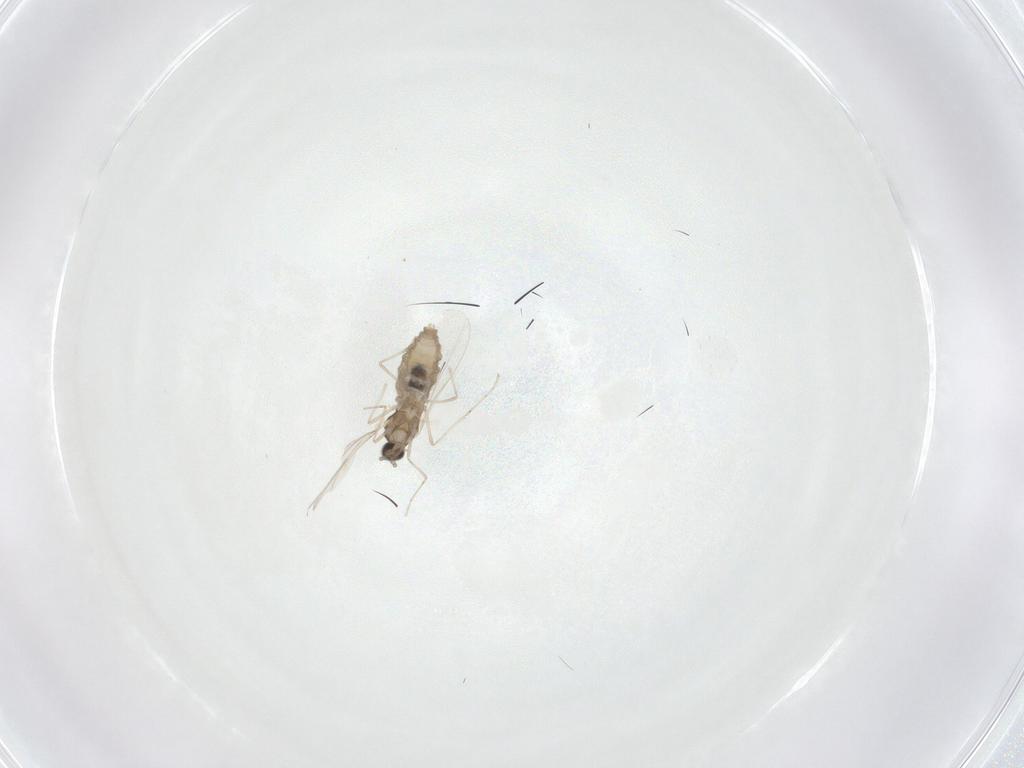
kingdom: Animalia
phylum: Arthropoda
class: Insecta
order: Diptera
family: Cecidomyiidae
